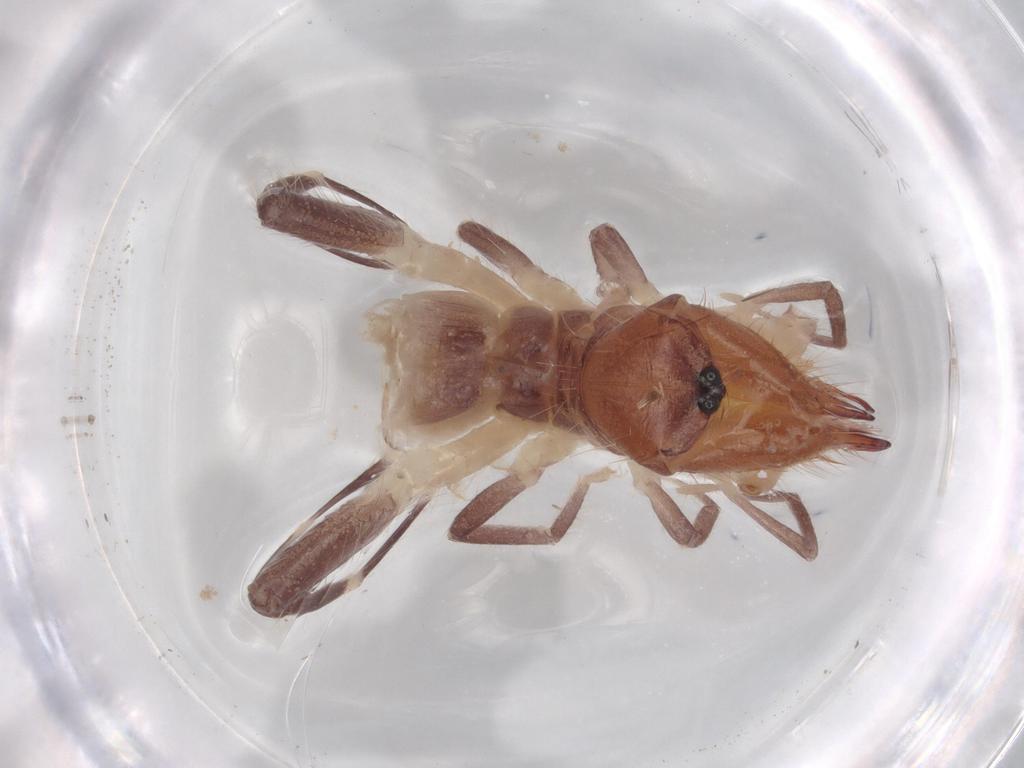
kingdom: Animalia
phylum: Arthropoda
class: Arachnida
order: Solifugae
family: Ammotrechidae
